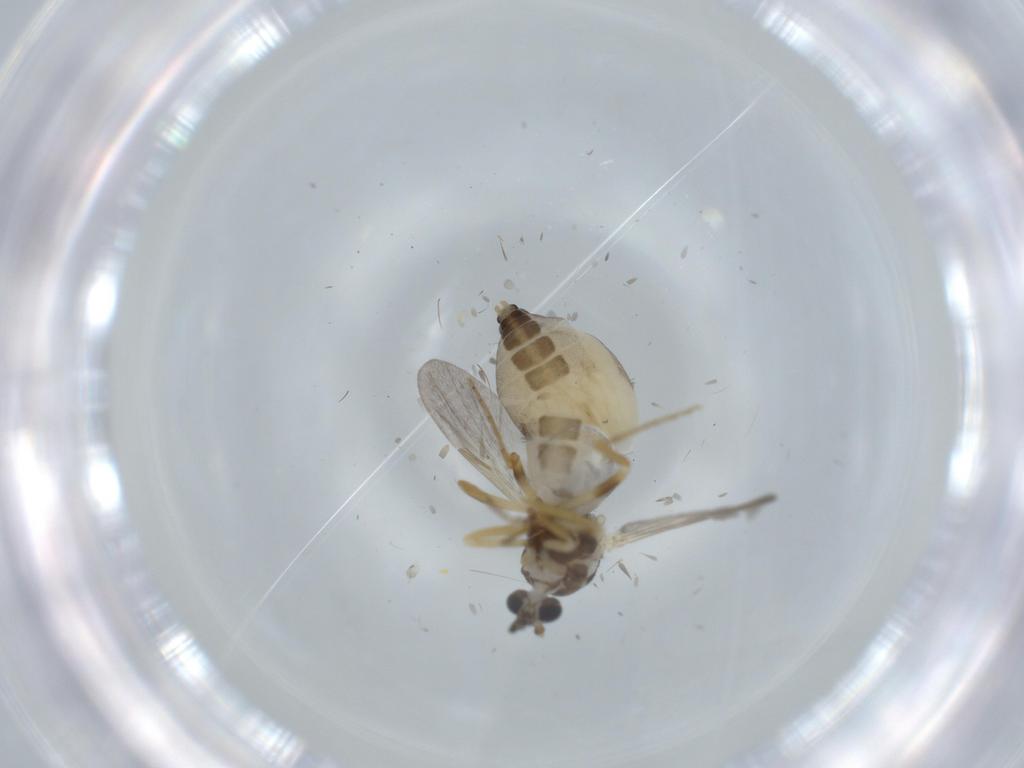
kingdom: Animalia
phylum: Arthropoda
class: Insecta
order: Diptera
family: Ceratopogonidae
